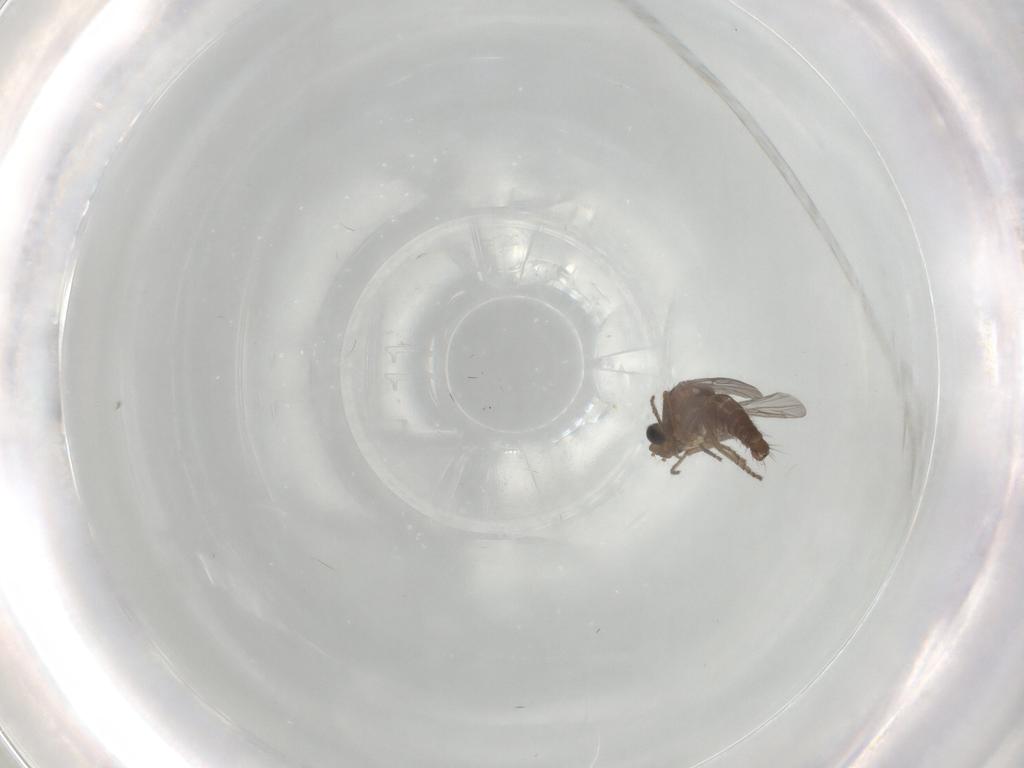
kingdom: Animalia
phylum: Arthropoda
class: Insecta
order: Diptera
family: Ceratopogonidae
